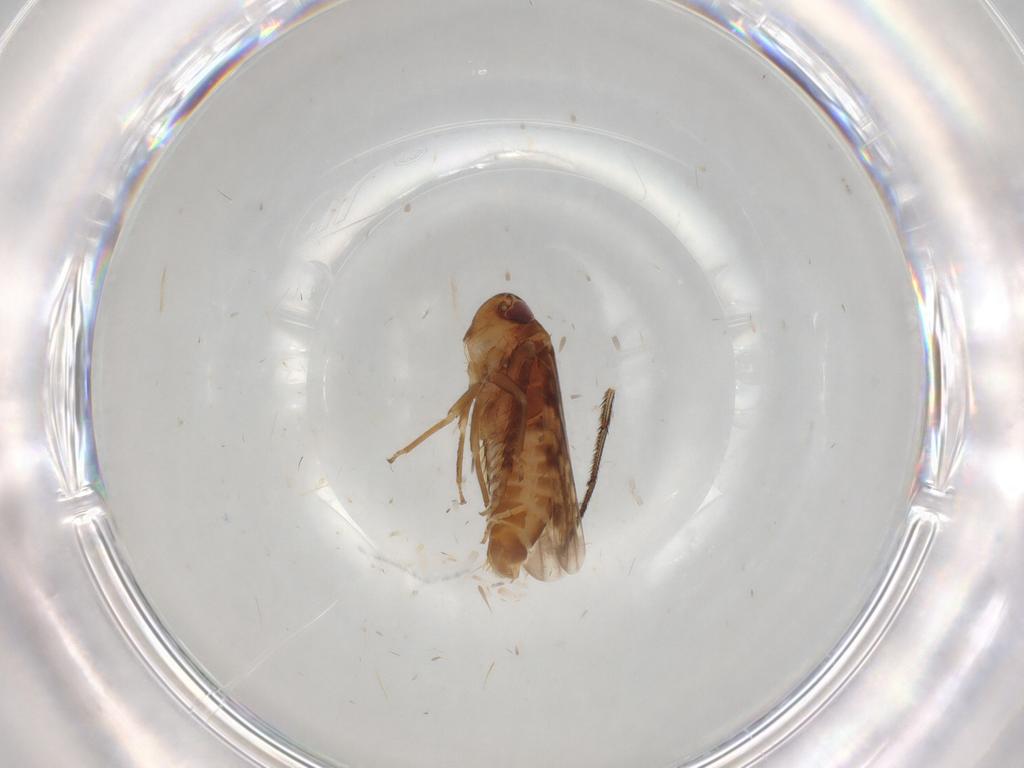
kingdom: Animalia
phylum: Arthropoda
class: Insecta
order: Hemiptera
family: Cicadellidae
